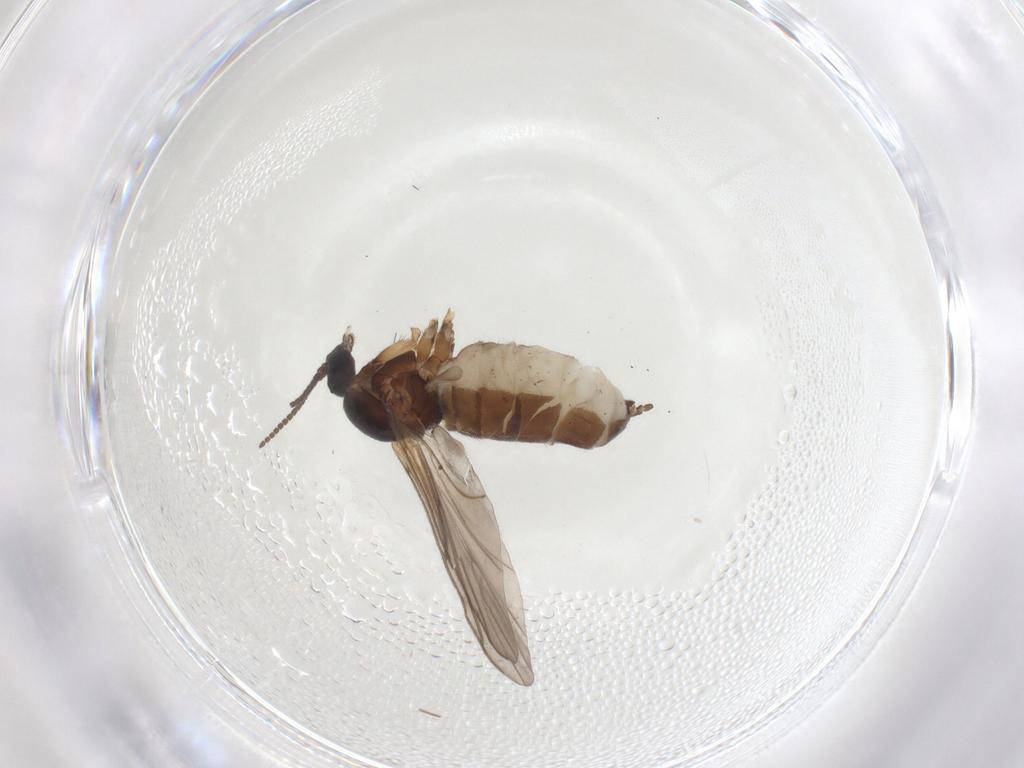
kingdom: Animalia
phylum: Arthropoda
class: Insecta
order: Diptera
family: Sciaridae
